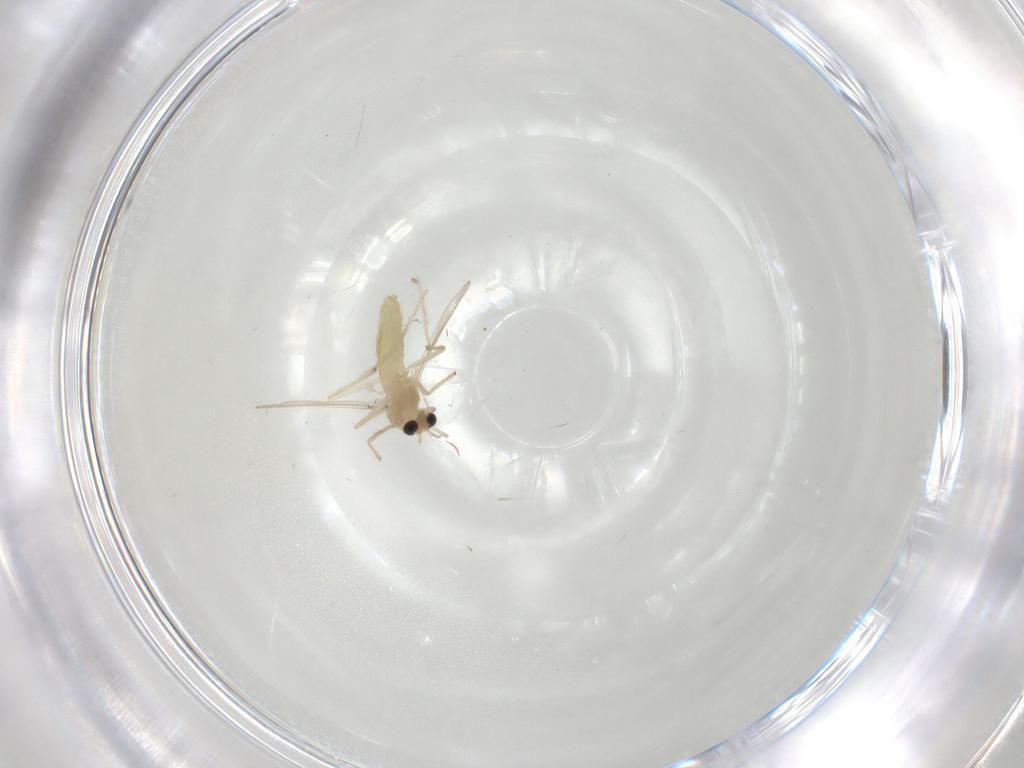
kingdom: Animalia
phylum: Arthropoda
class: Insecta
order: Diptera
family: Chironomidae
